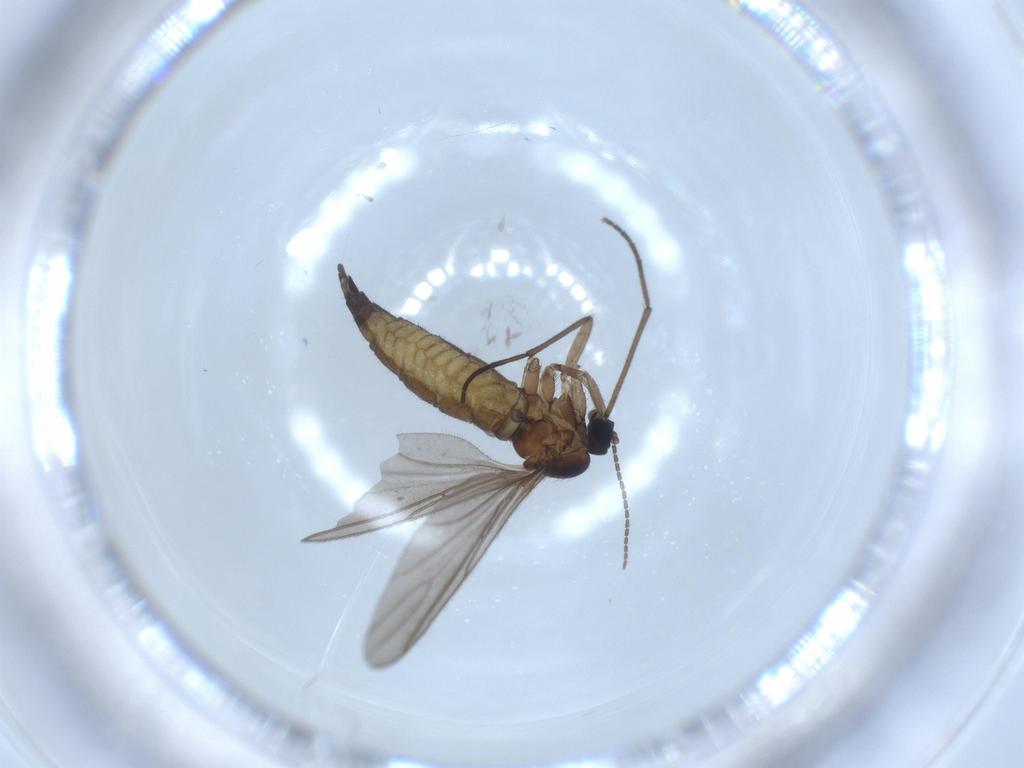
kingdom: Animalia
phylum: Arthropoda
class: Insecta
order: Diptera
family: Sciaridae
